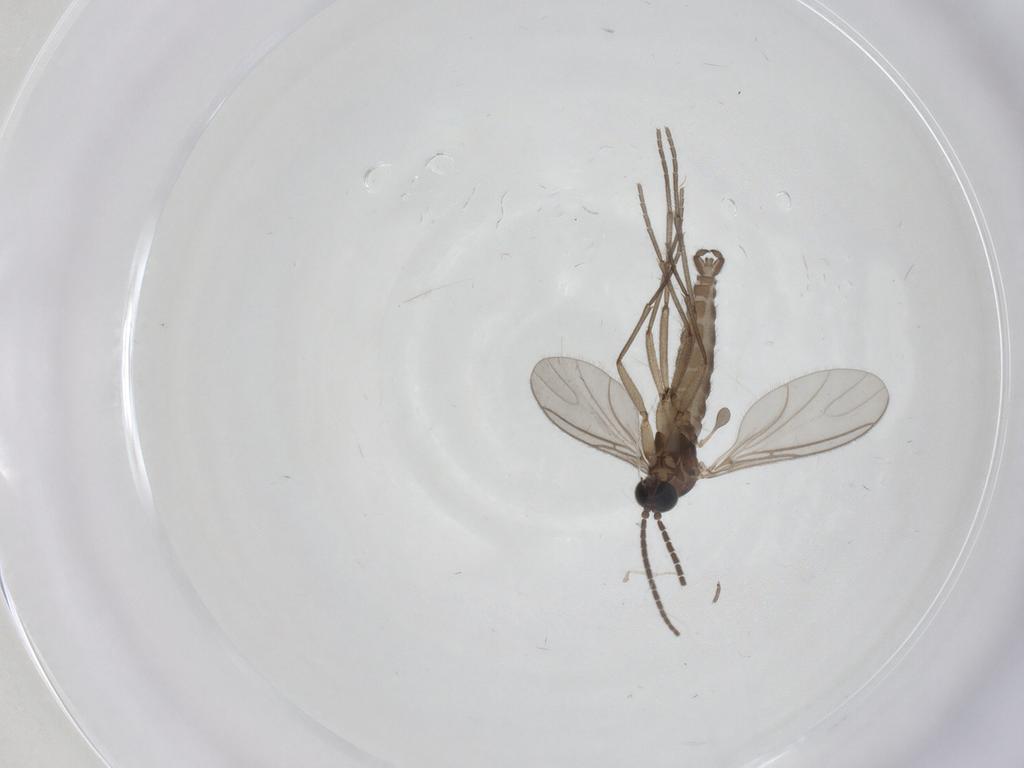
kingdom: Animalia
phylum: Arthropoda
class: Insecta
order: Diptera
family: Sciaridae
